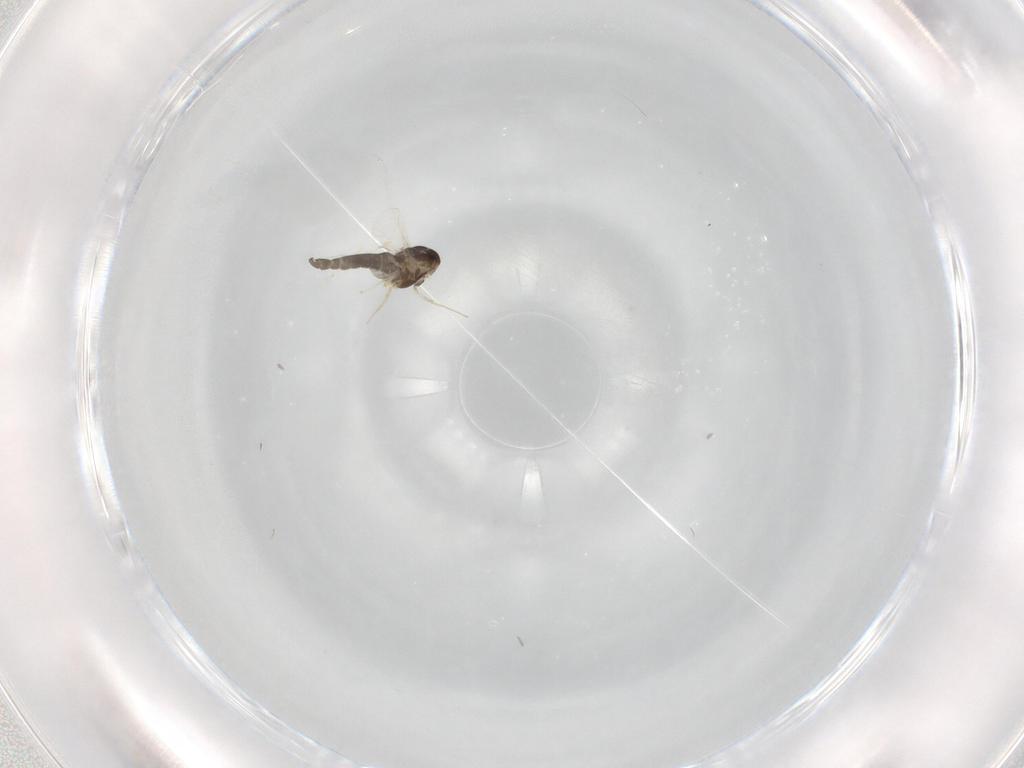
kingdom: Animalia
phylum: Arthropoda
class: Insecta
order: Diptera
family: Chironomidae
